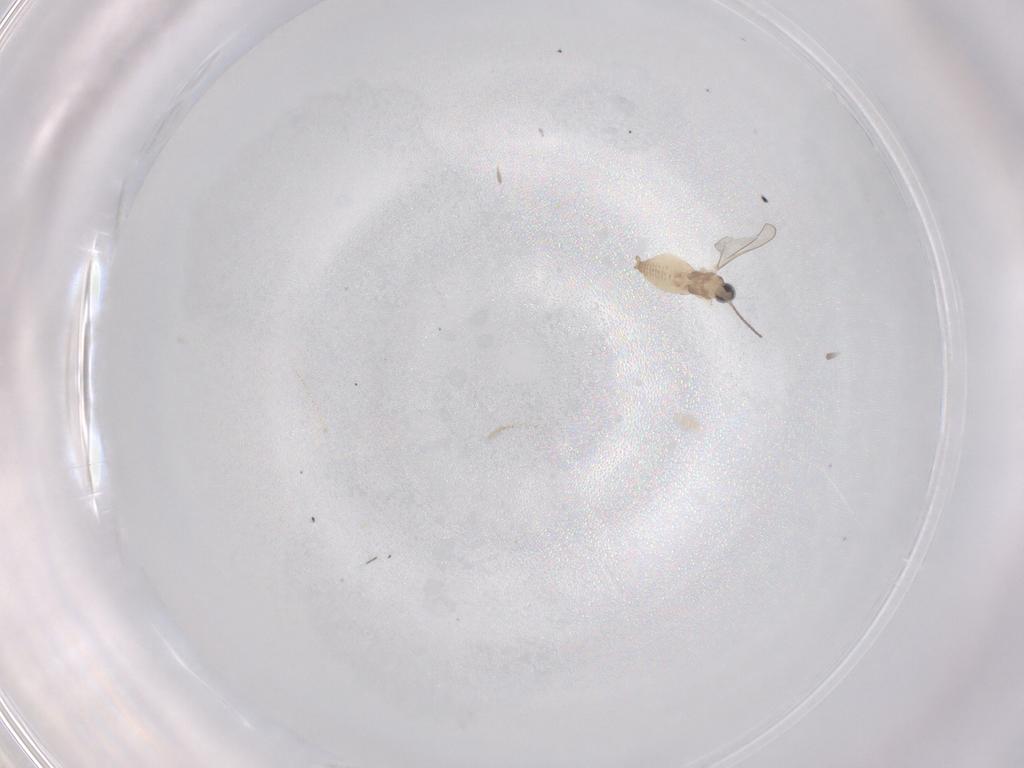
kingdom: Animalia
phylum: Arthropoda
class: Insecta
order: Diptera
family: Cecidomyiidae
